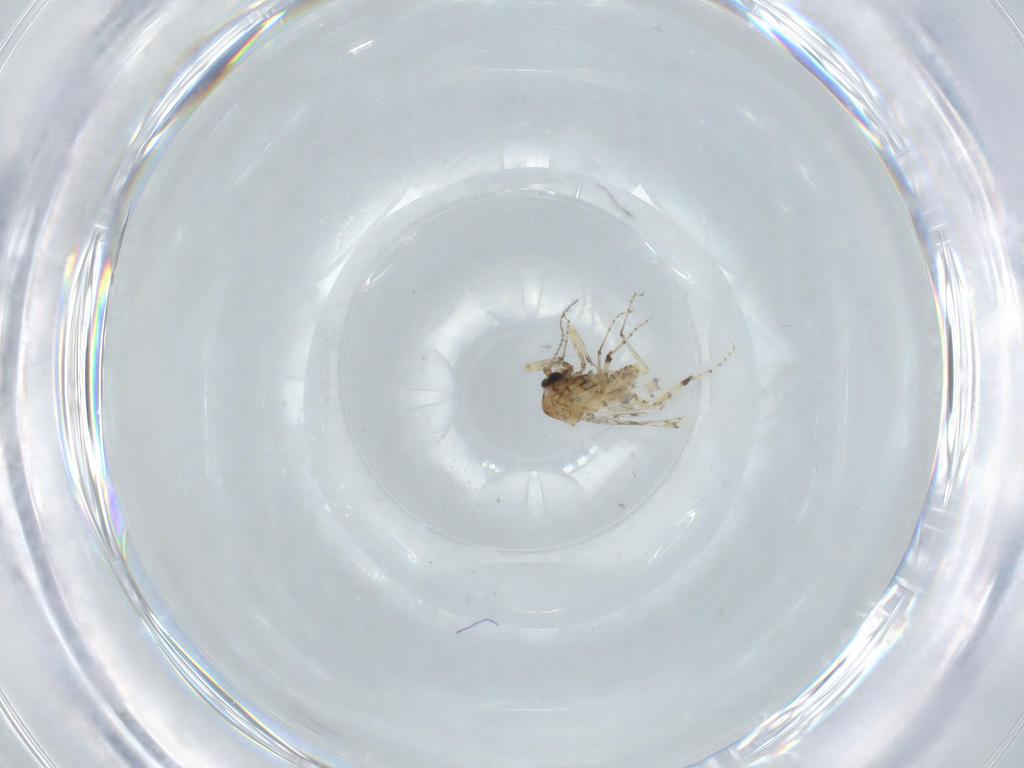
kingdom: Animalia
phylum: Arthropoda
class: Insecta
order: Diptera
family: Ceratopogonidae
